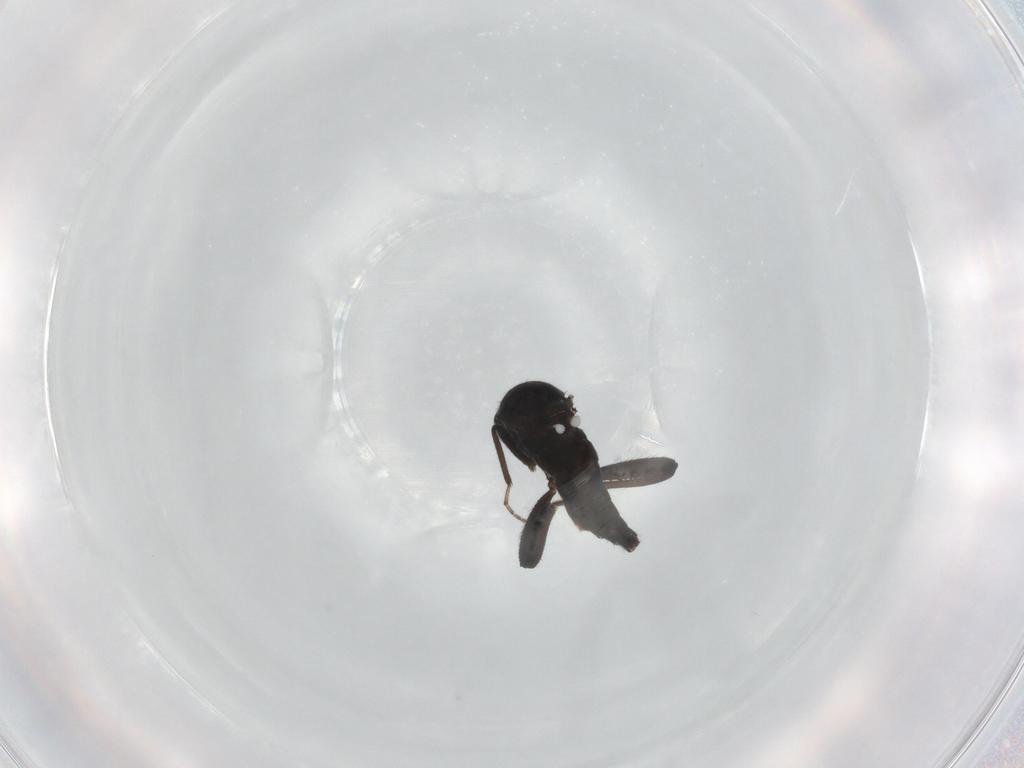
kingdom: Animalia
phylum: Arthropoda
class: Insecta
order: Diptera
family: Ceratopogonidae
